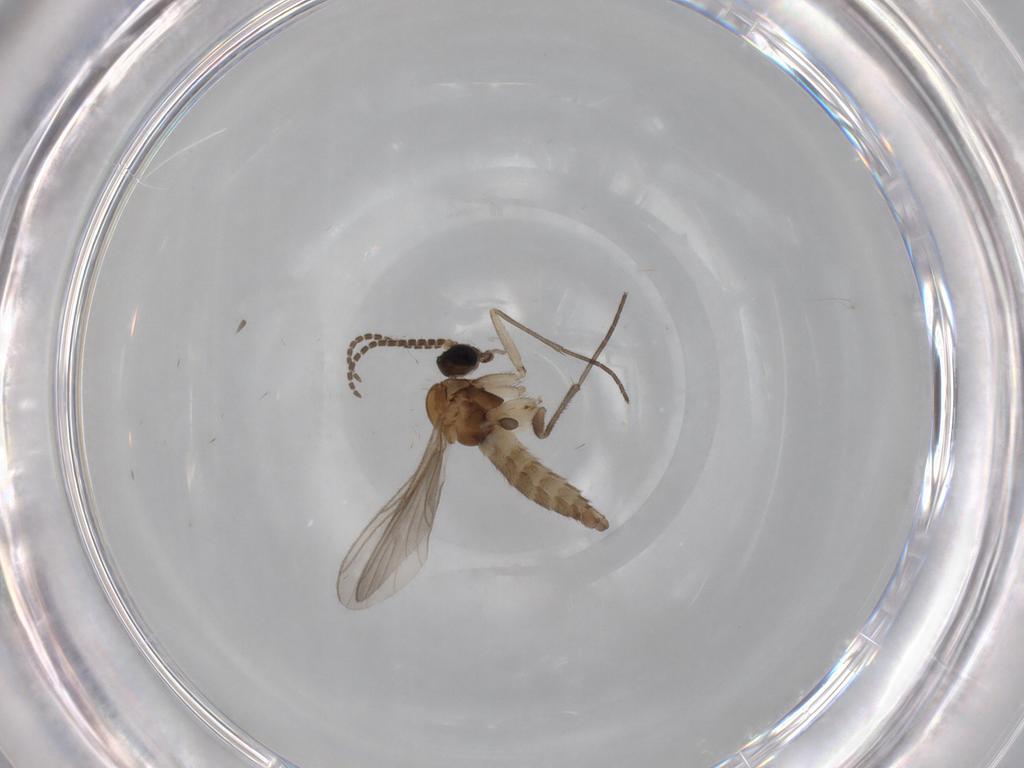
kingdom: Animalia
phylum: Arthropoda
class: Insecta
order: Diptera
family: Sciaridae
